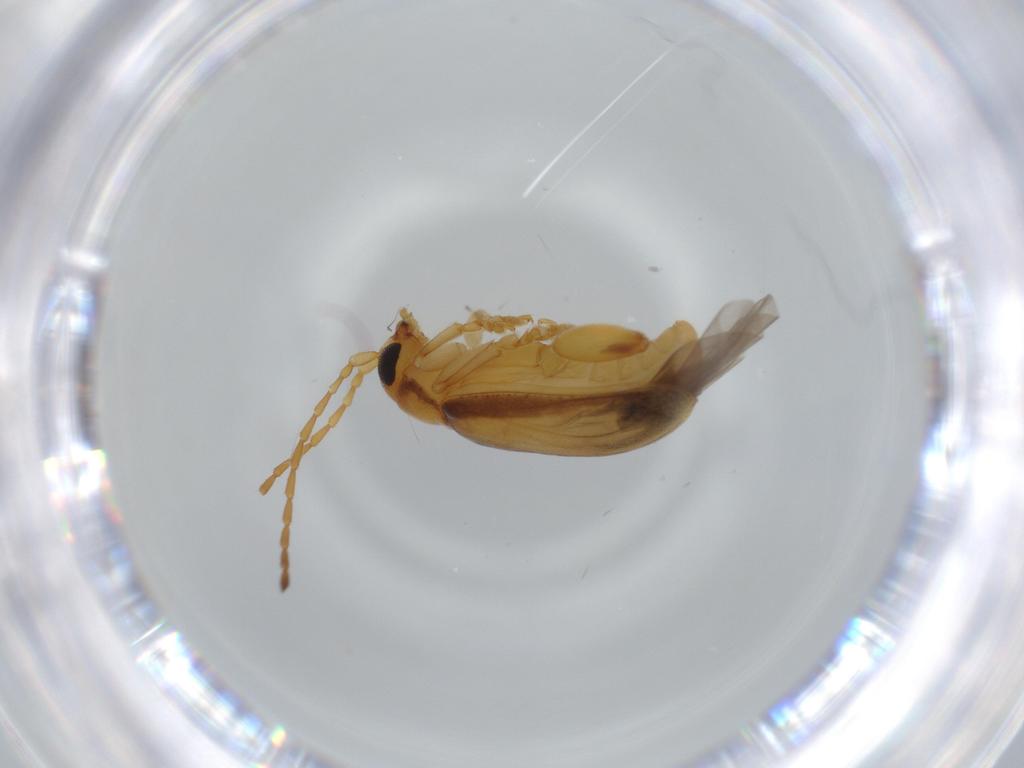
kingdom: Animalia
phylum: Arthropoda
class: Insecta
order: Coleoptera
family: Chrysomelidae
